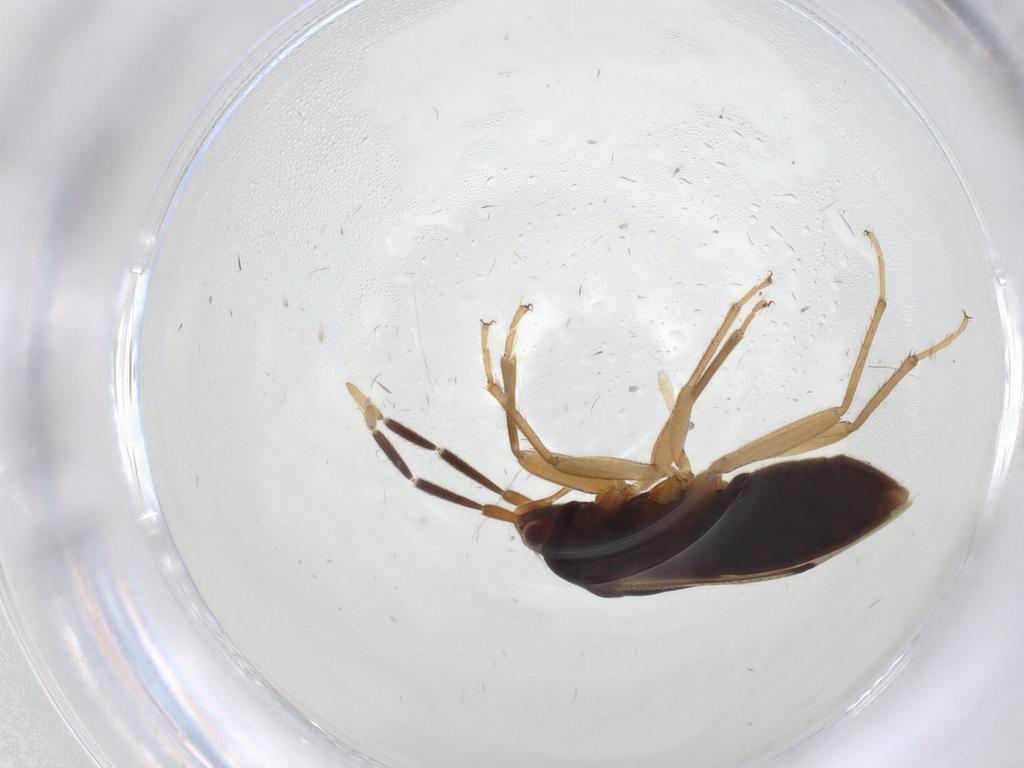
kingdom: Animalia
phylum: Arthropoda
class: Insecta
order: Hemiptera
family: Rhyparochromidae
